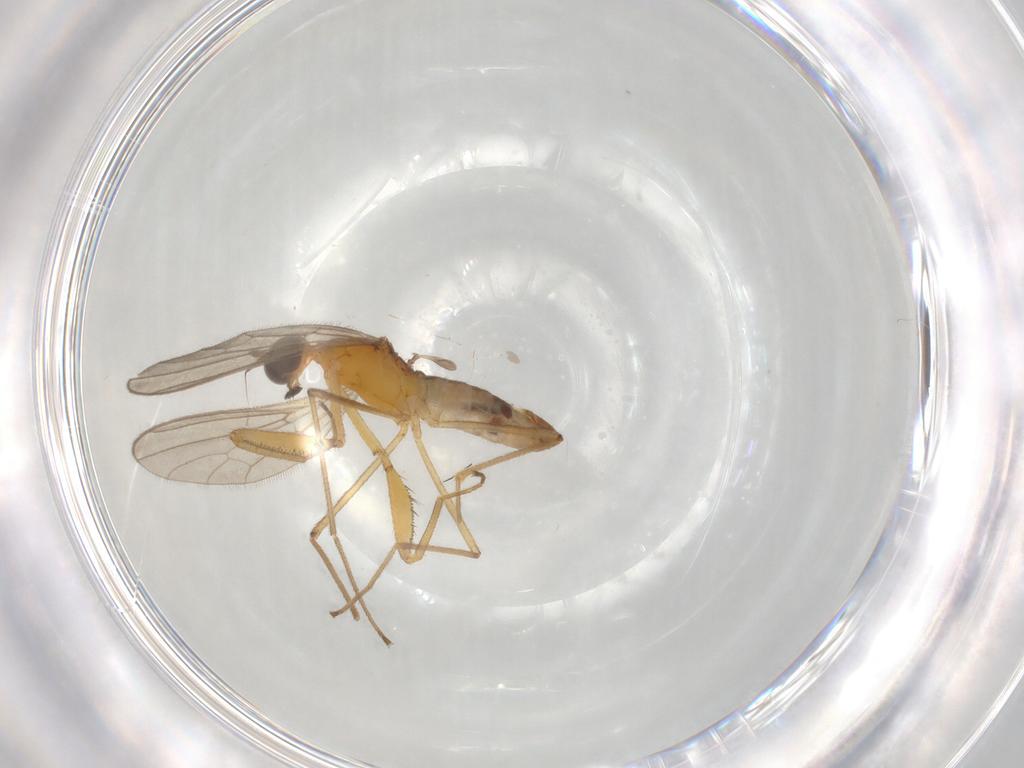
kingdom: Animalia
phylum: Arthropoda
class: Insecta
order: Diptera
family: Empididae
